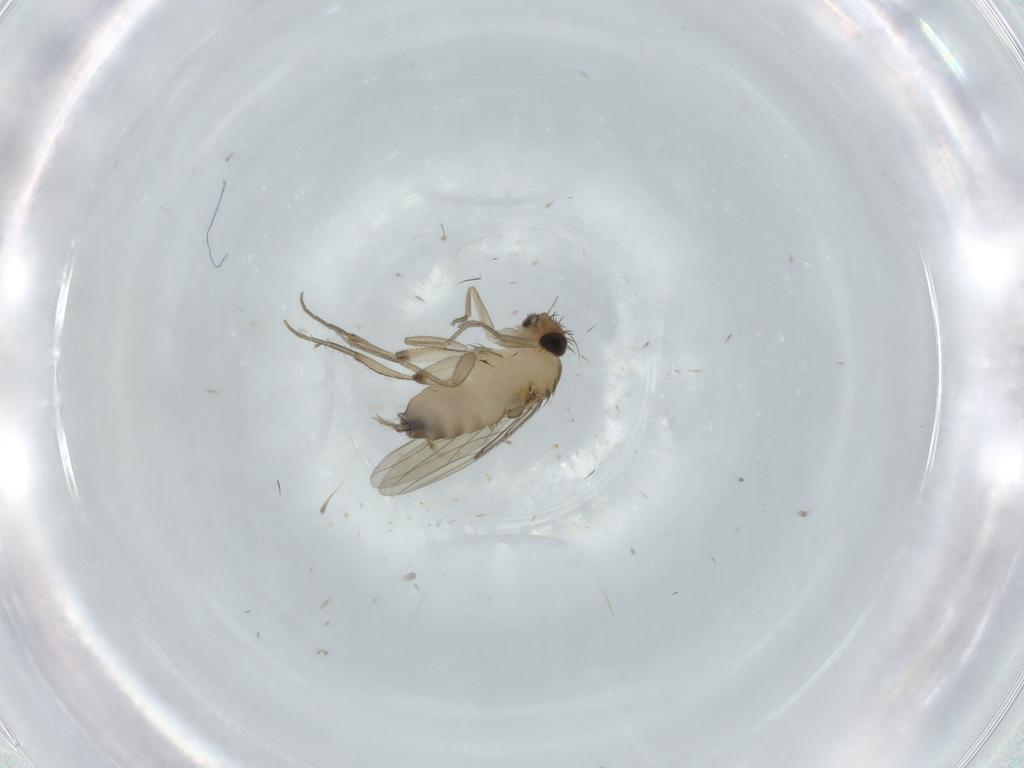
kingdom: Animalia
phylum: Arthropoda
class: Insecta
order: Diptera
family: Phoridae
